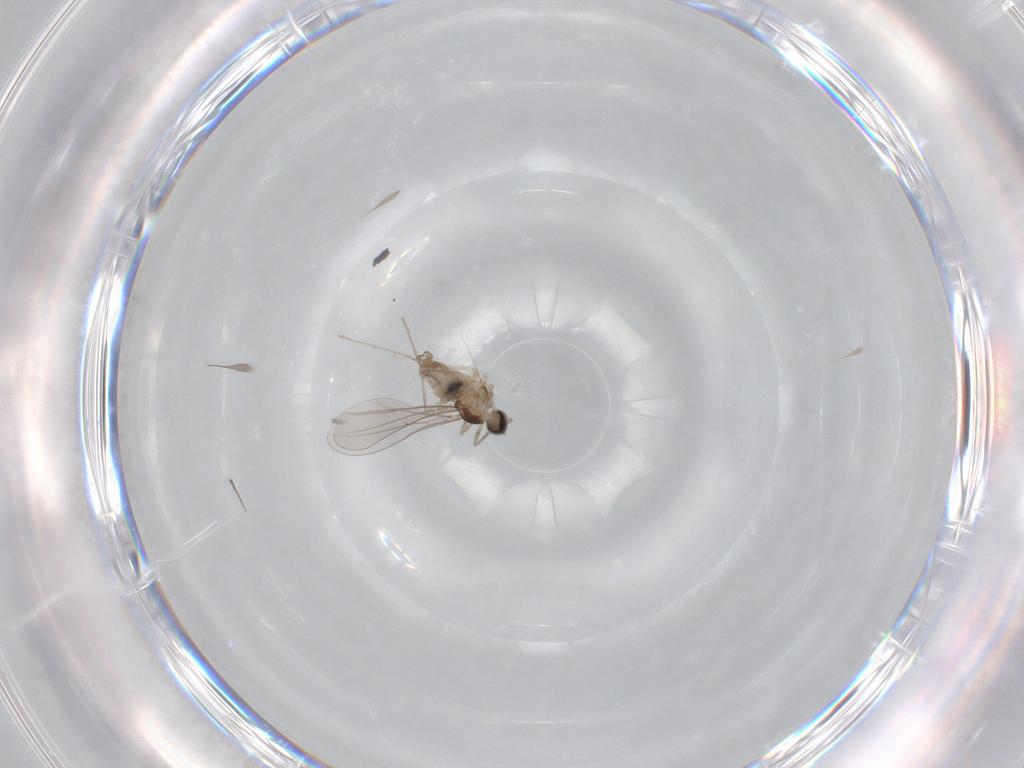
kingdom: Animalia
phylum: Arthropoda
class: Insecta
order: Diptera
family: Cecidomyiidae
